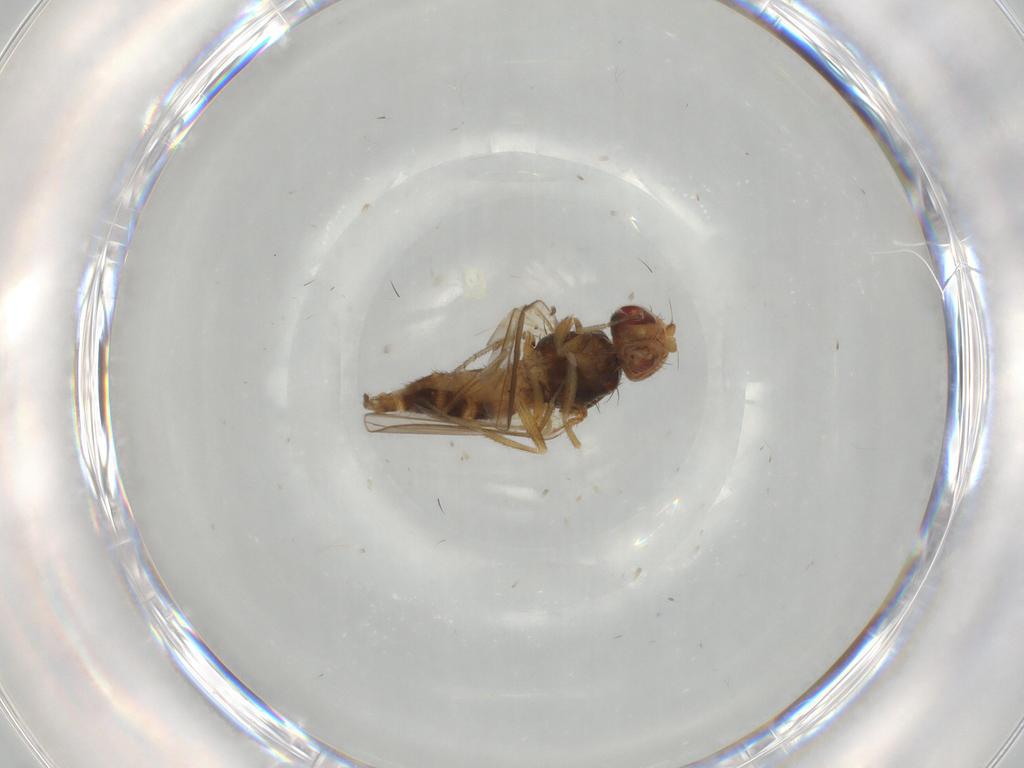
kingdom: Animalia
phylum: Arthropoda
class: Insecta
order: Diptera
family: Canacidae
